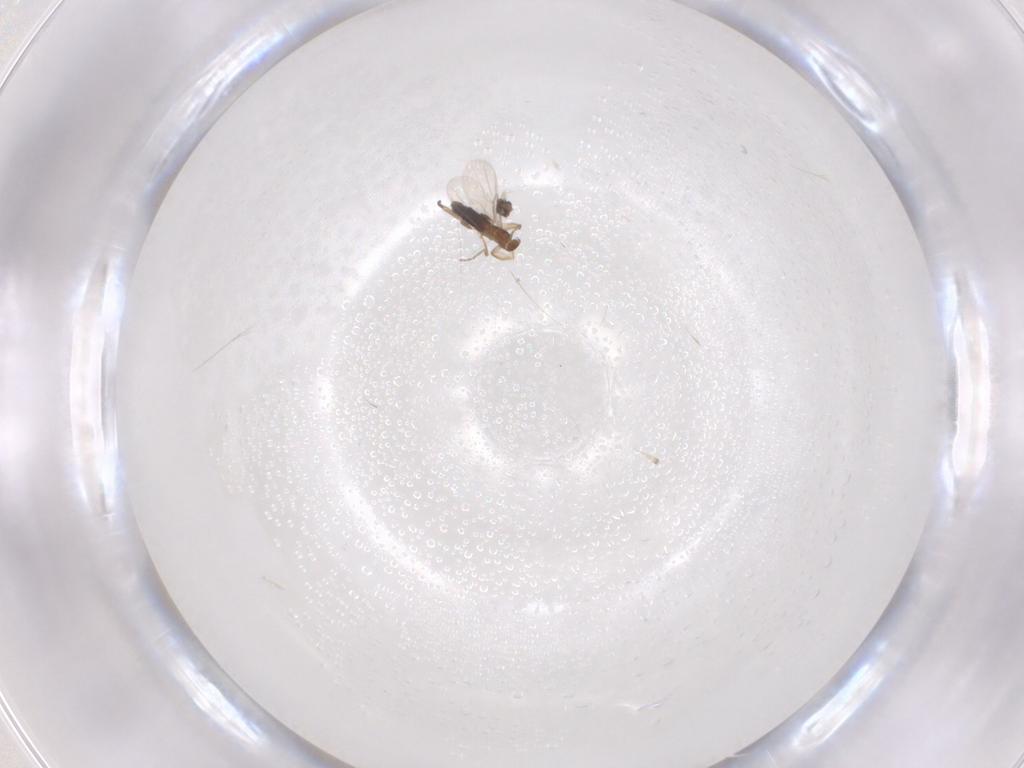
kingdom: Animalia
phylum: Arthropoda
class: Insecta
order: Diptera
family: Phoridae
